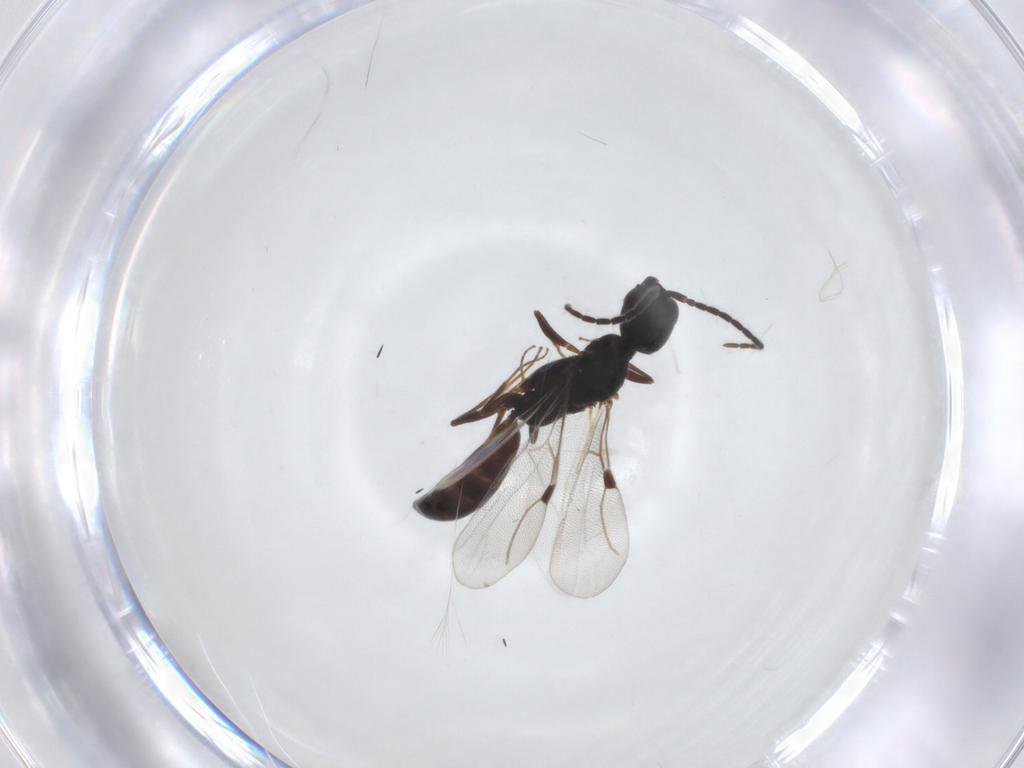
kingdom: Animalia
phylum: Arthropoda
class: Insecta
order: Hymenoptera
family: Bethylidae
